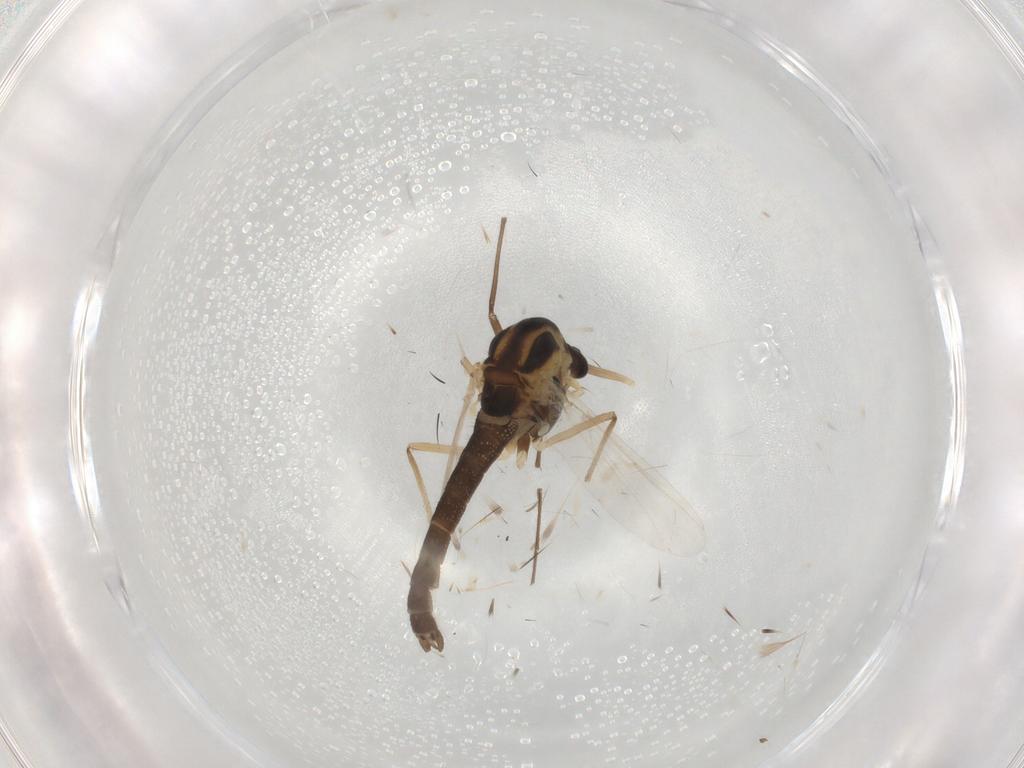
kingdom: Animalia
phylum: Arthropoda
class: Insecta
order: Diptera
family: Chironomidae
